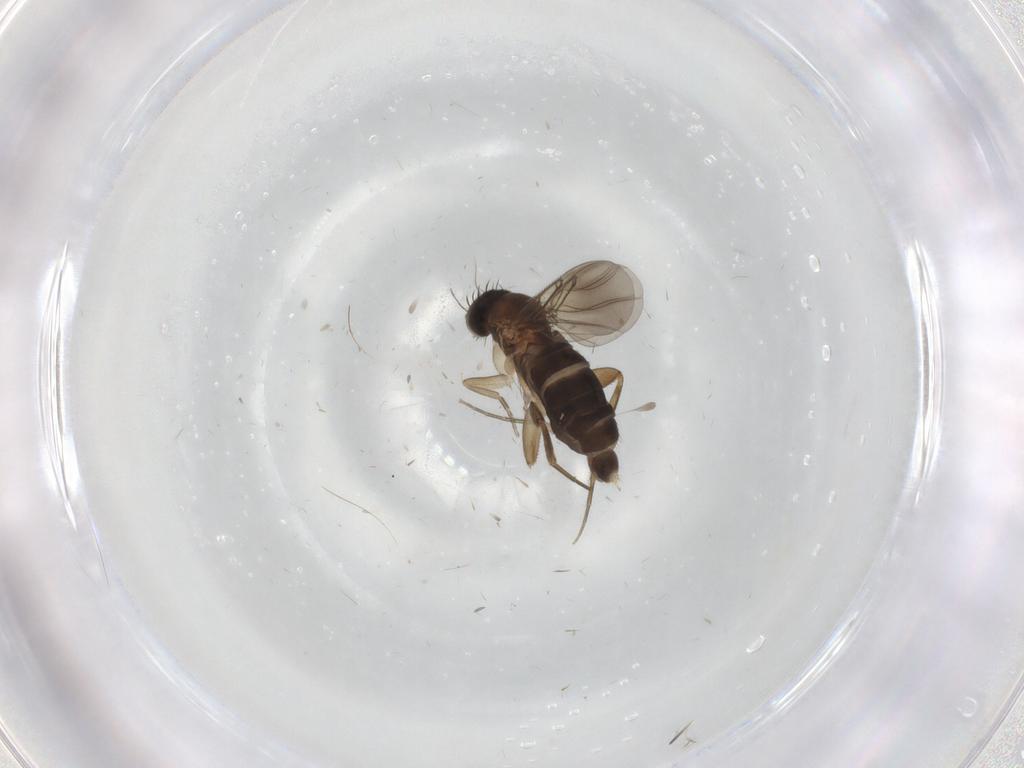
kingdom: Animalia
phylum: Arthropoda
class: Insecta
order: Diptera
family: Phoridae
